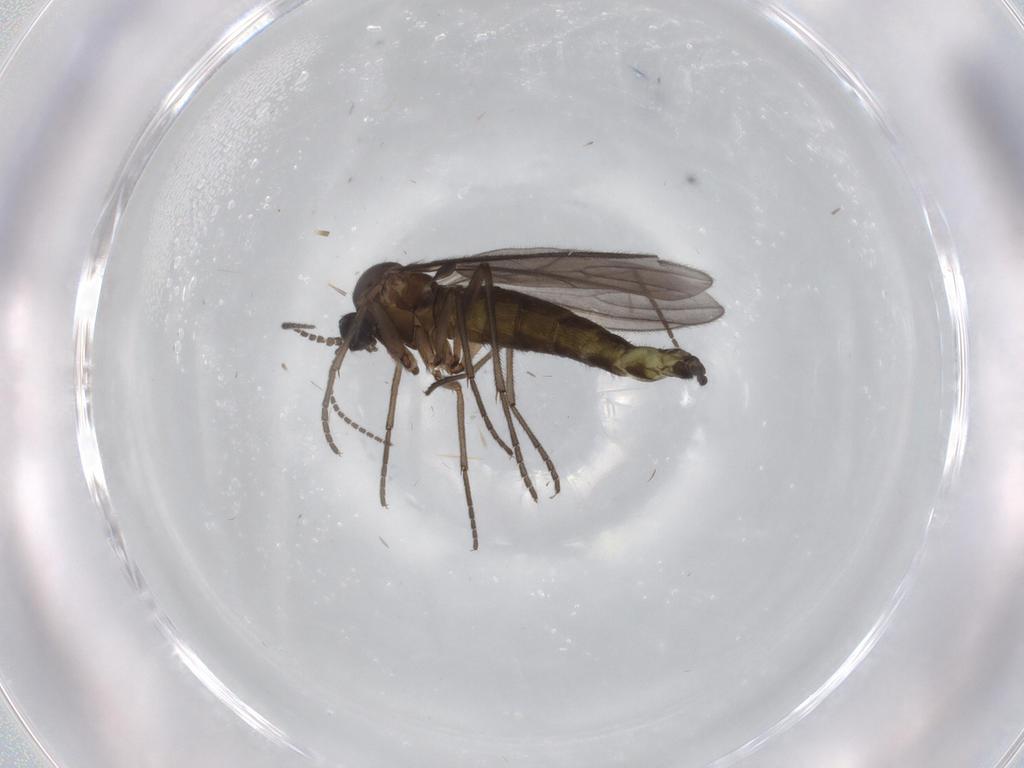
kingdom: Animalia
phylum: Arthropoda
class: Insecta
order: Diptera
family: Sciaridae
